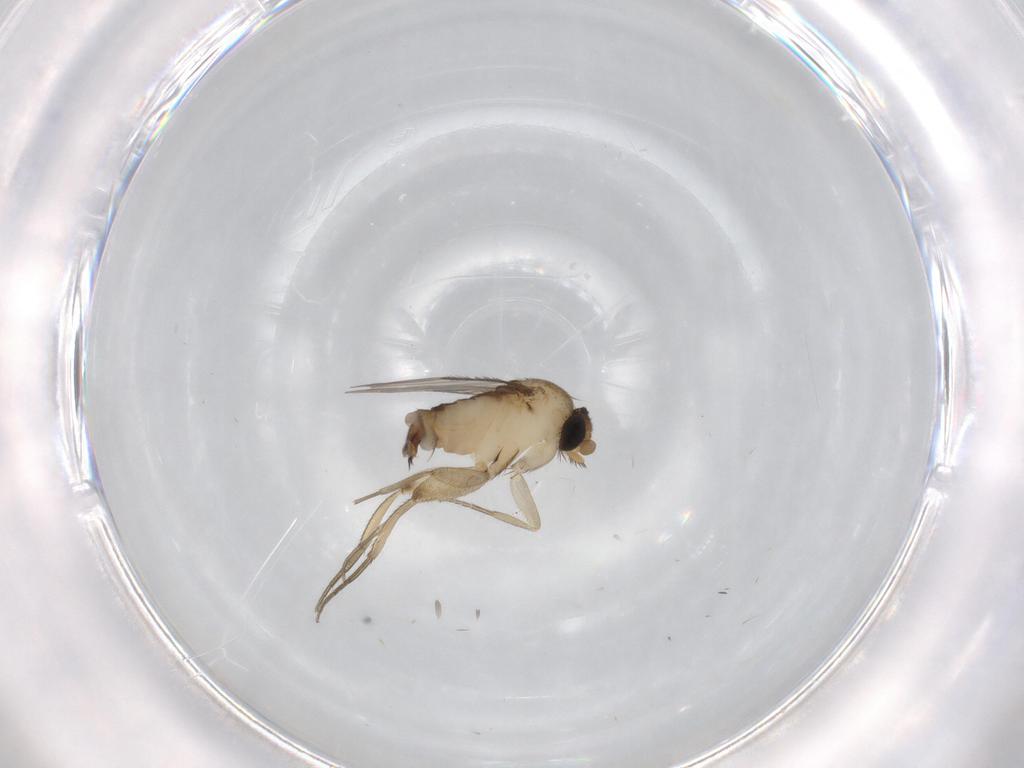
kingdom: Animalia
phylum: Arthropoda
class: Insecta
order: Diptera
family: Phoridae
